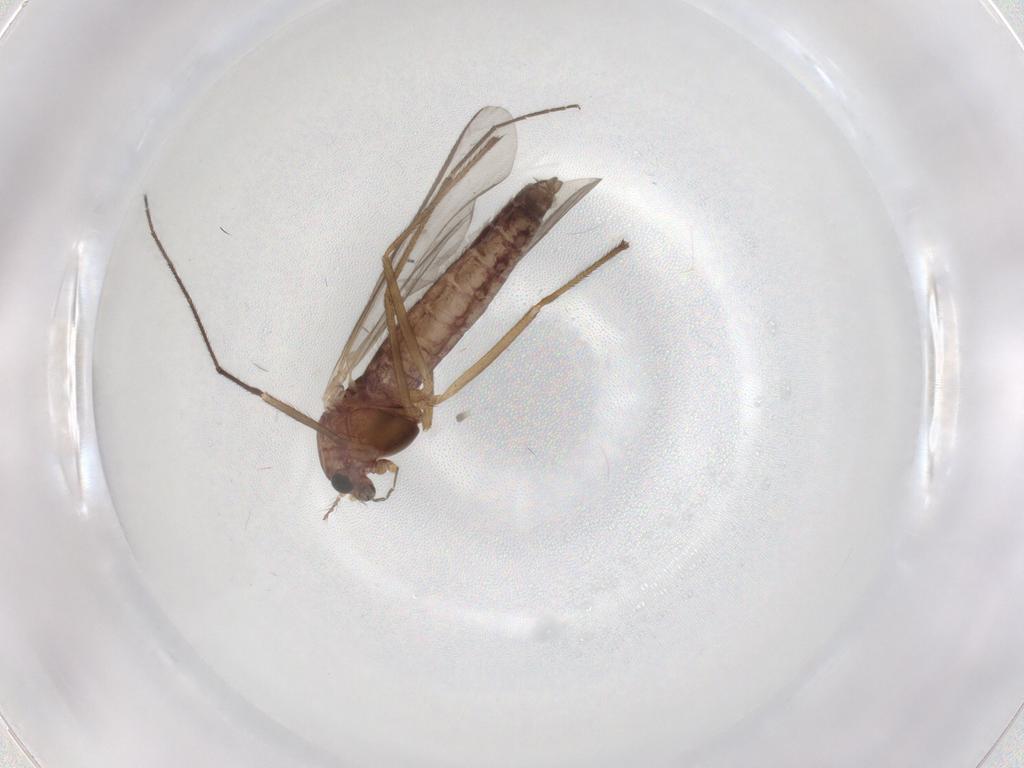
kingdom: Animalia
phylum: Arthropoda
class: Insecta
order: Diptera
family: Chironomidae
